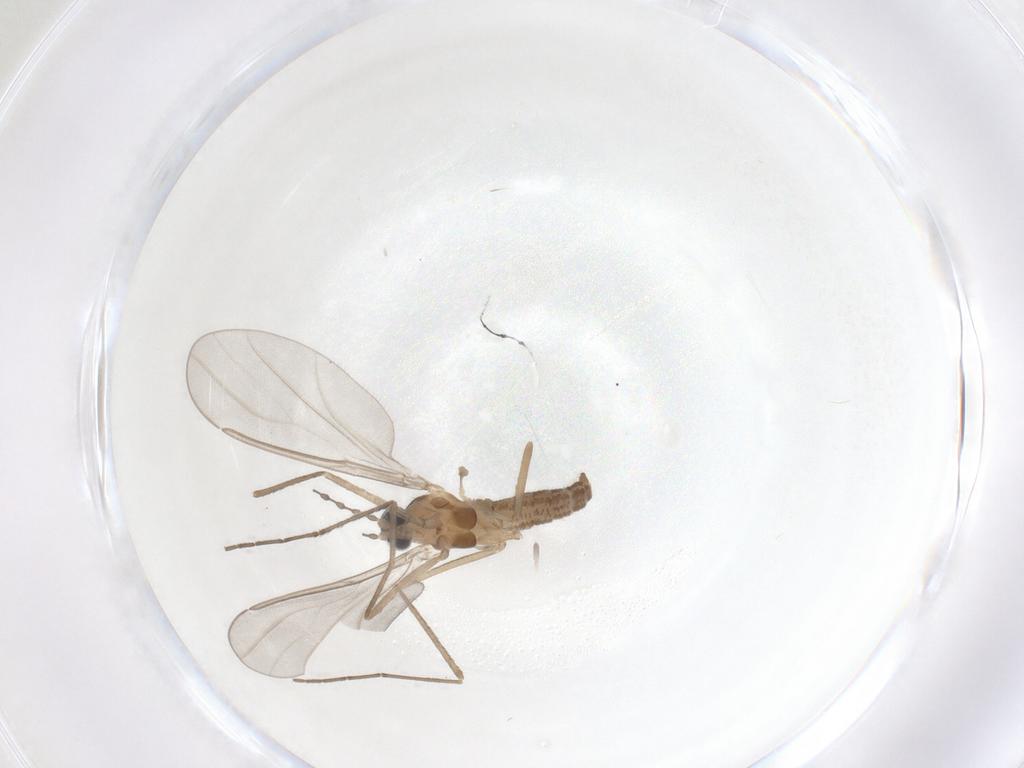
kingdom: Animalia
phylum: Arthropoda
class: Insecta
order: Diptera
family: Cecidomyiidae
